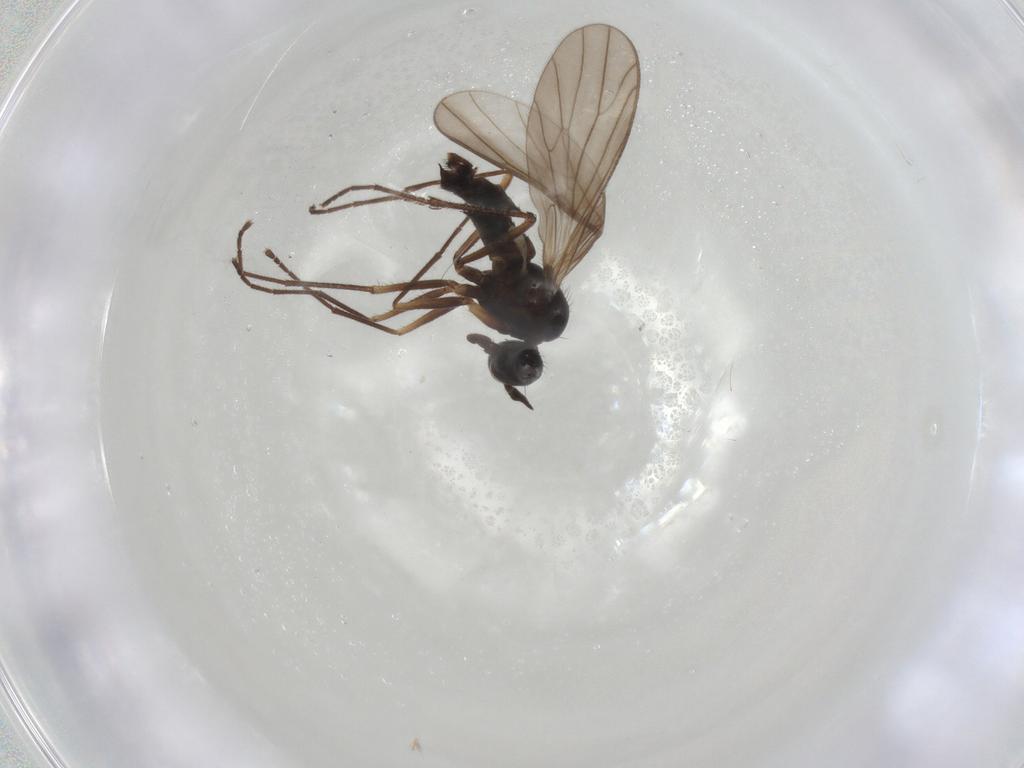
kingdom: Animalia
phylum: Arthropoda
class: Insecta
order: Diptera
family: Empididae
